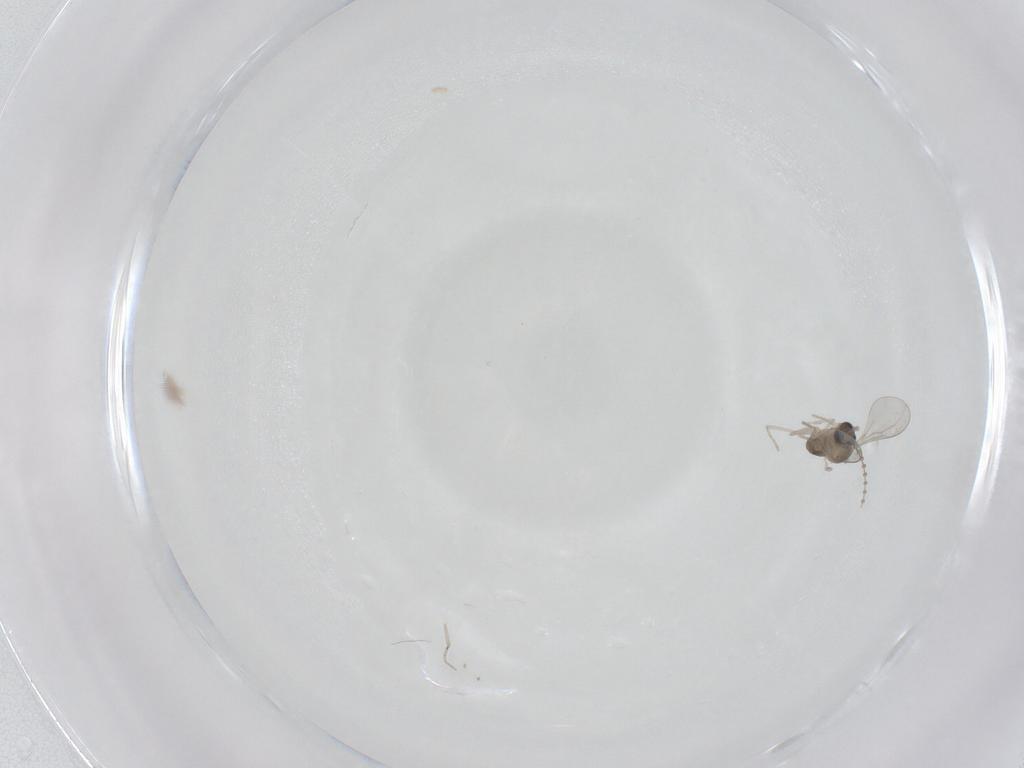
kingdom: Animalia
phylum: Arthropoda
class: Insecta
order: Diptera
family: Cecidomyiidae
